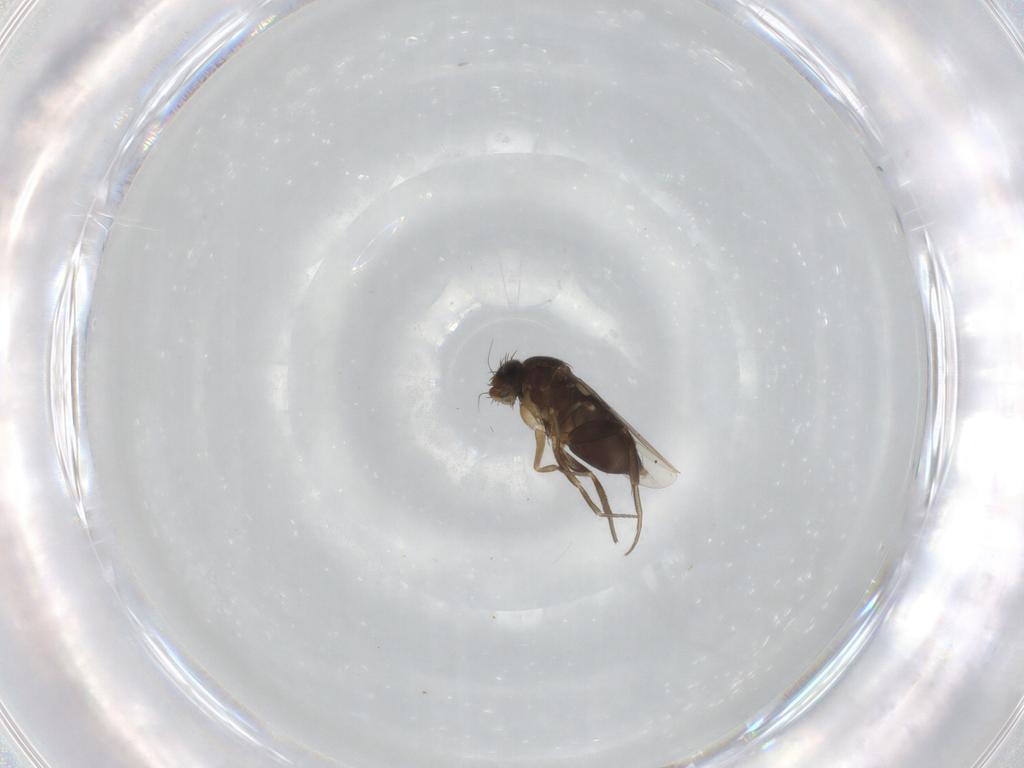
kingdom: Animalia
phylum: Arthropoda
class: Insecta
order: Diptera
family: Phoridae
